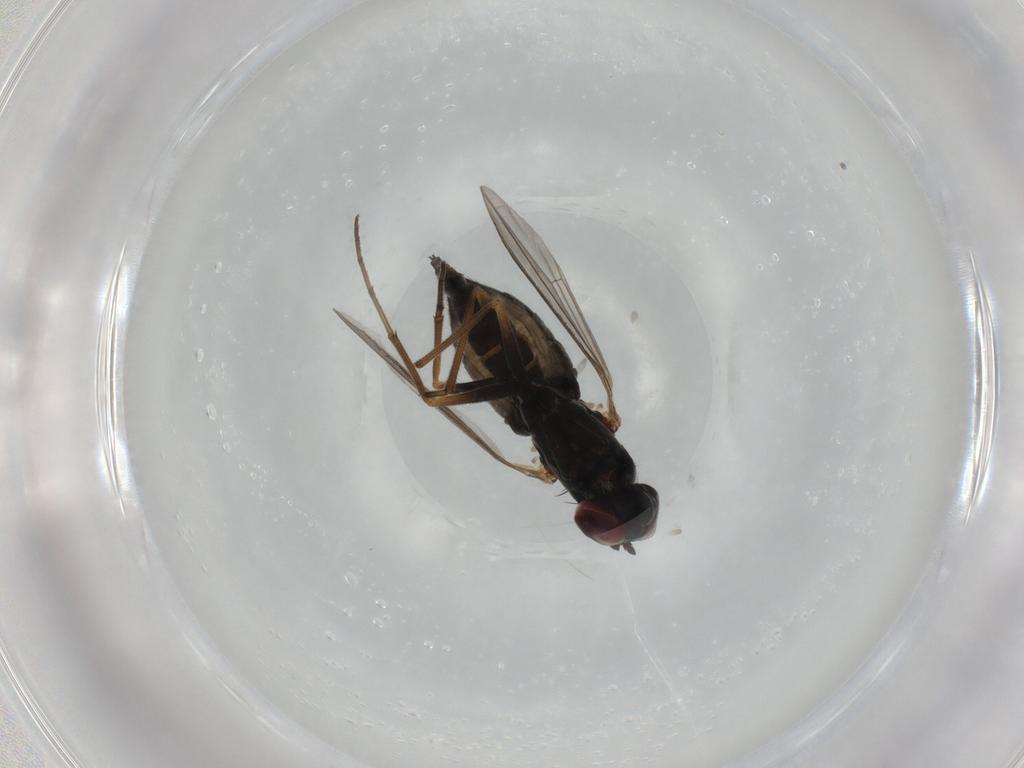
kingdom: Animalia
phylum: Arthropoda
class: Insecta
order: Diptera
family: Dolichopodidae
